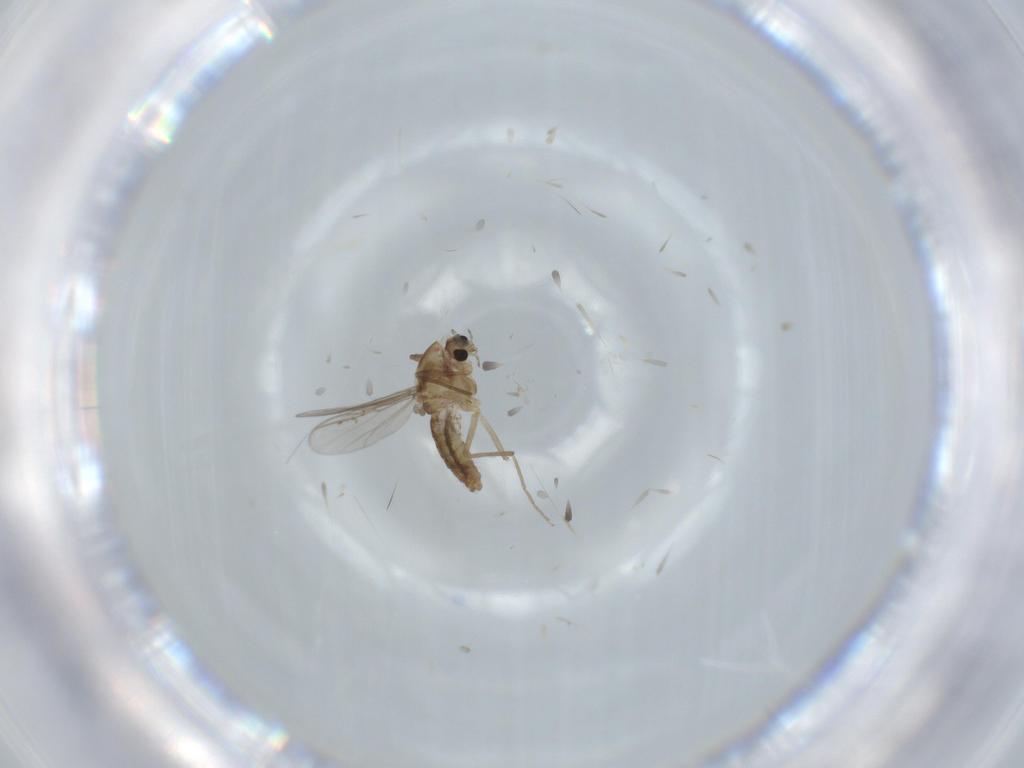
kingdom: Animalia
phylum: Arthropoda
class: Insecta
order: Diptera
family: Chironomidae
